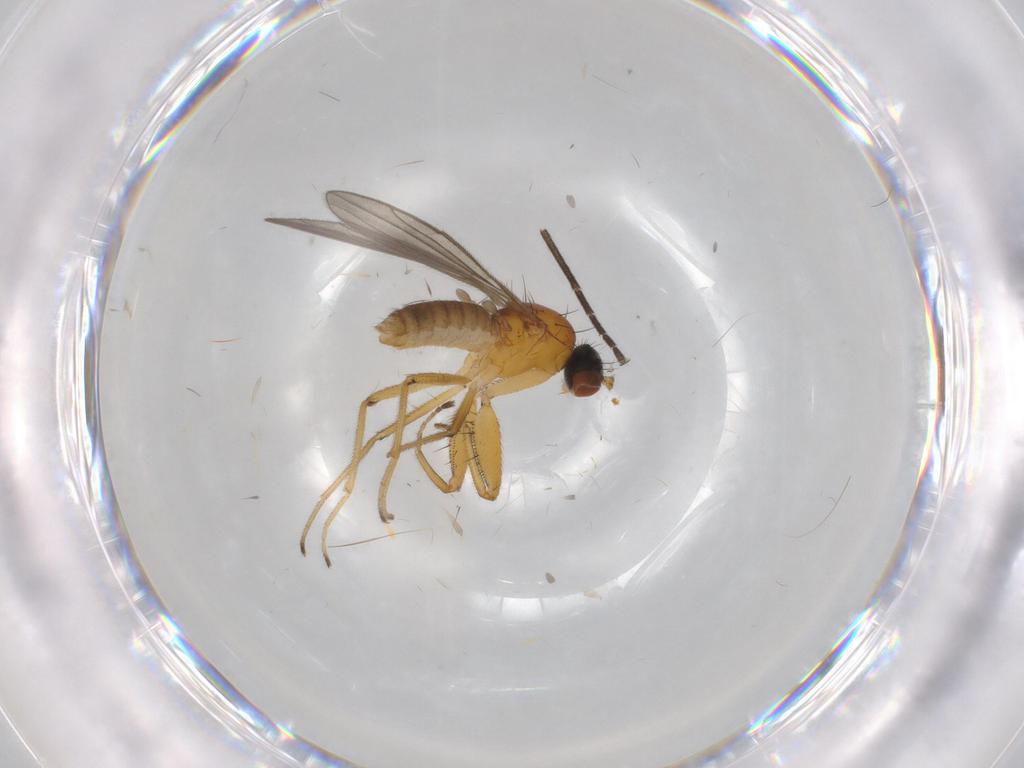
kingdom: Animalia
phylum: Arthropoda
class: Insecta
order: Diptera
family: Empididae
